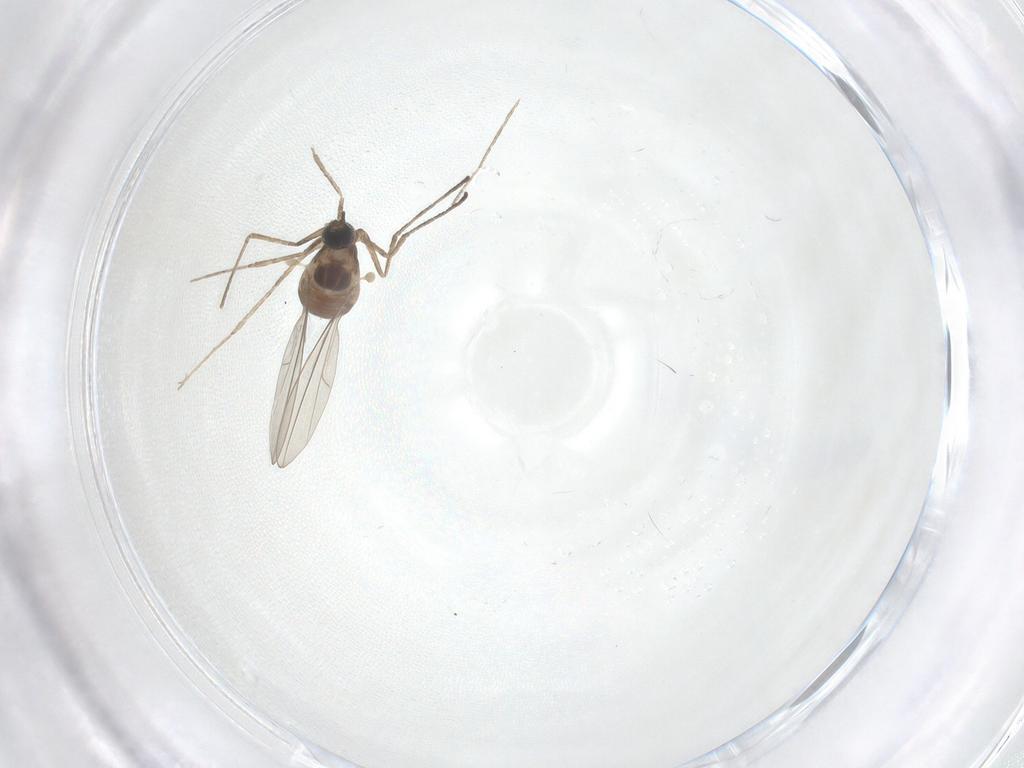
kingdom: Animalia
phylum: Arthropoda
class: Insecta
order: Diptera
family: Cecidomyiidae
